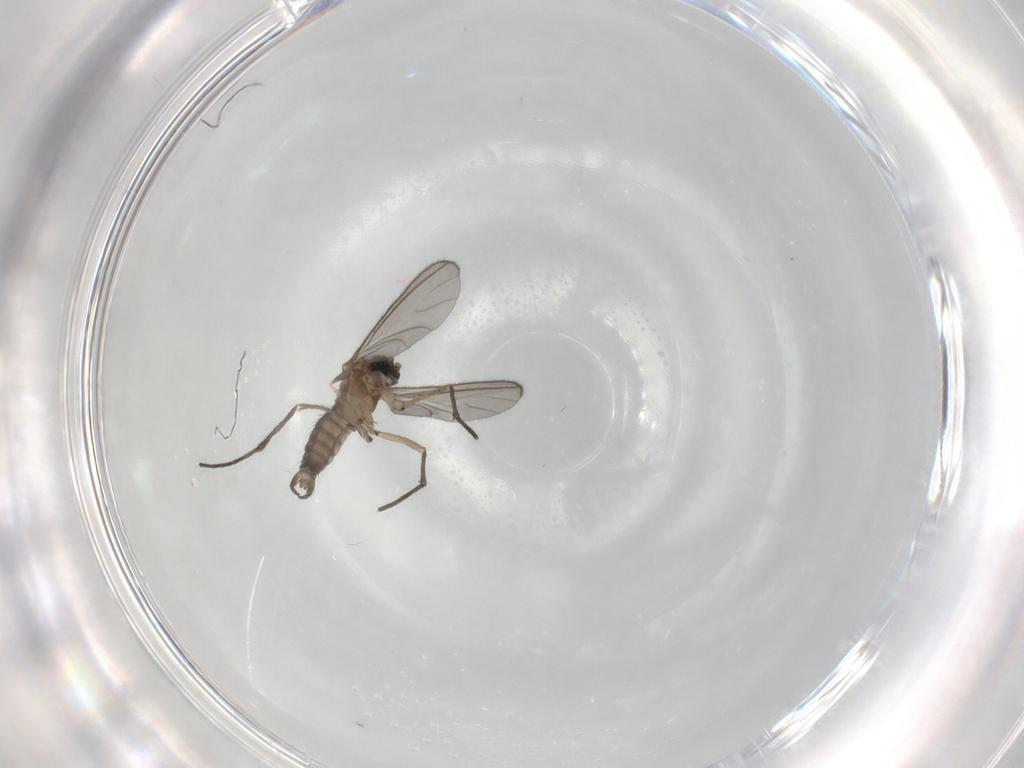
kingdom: Animalia
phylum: Arthropoda
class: Insecta
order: Diptera
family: Sciaridae
